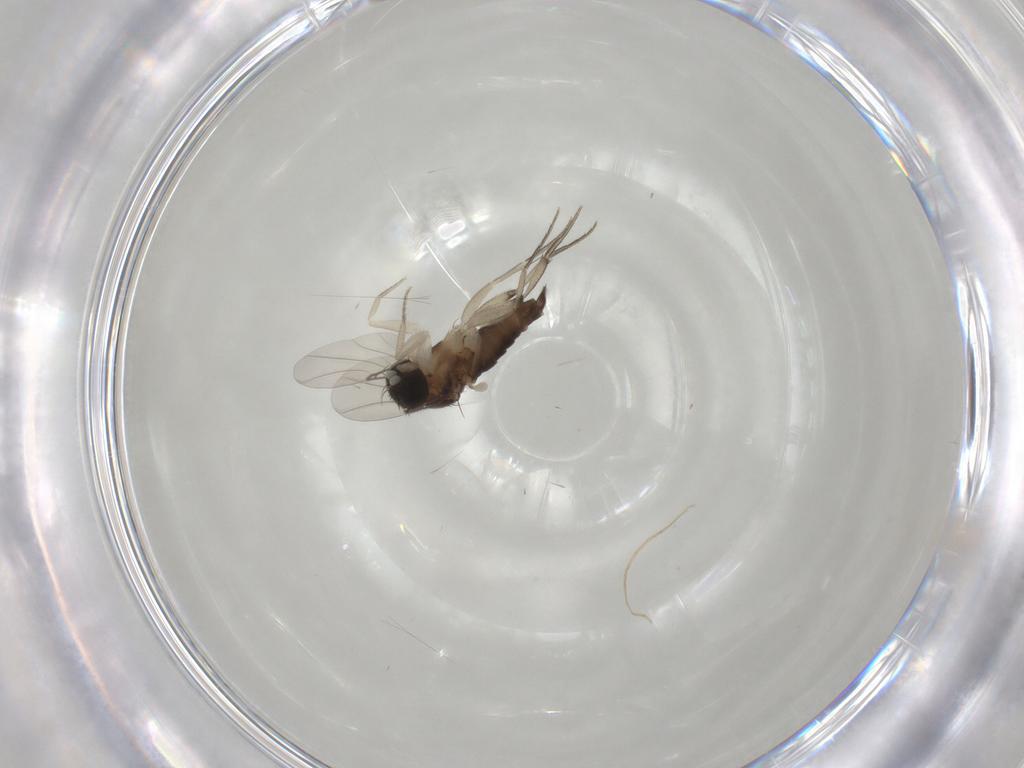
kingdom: Animalia
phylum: Arthropoda
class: Insecta
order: Diptera
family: Phoridae
